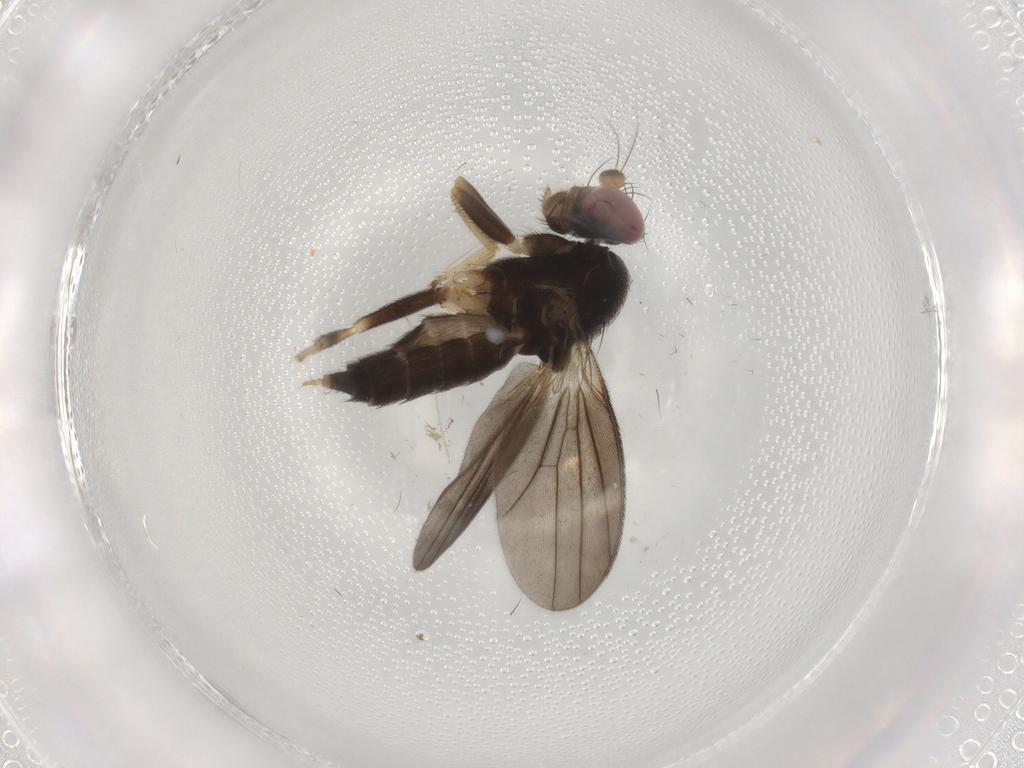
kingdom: Animalia
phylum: Arthropoda
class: Insecta
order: Diptera
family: Clusiidae
